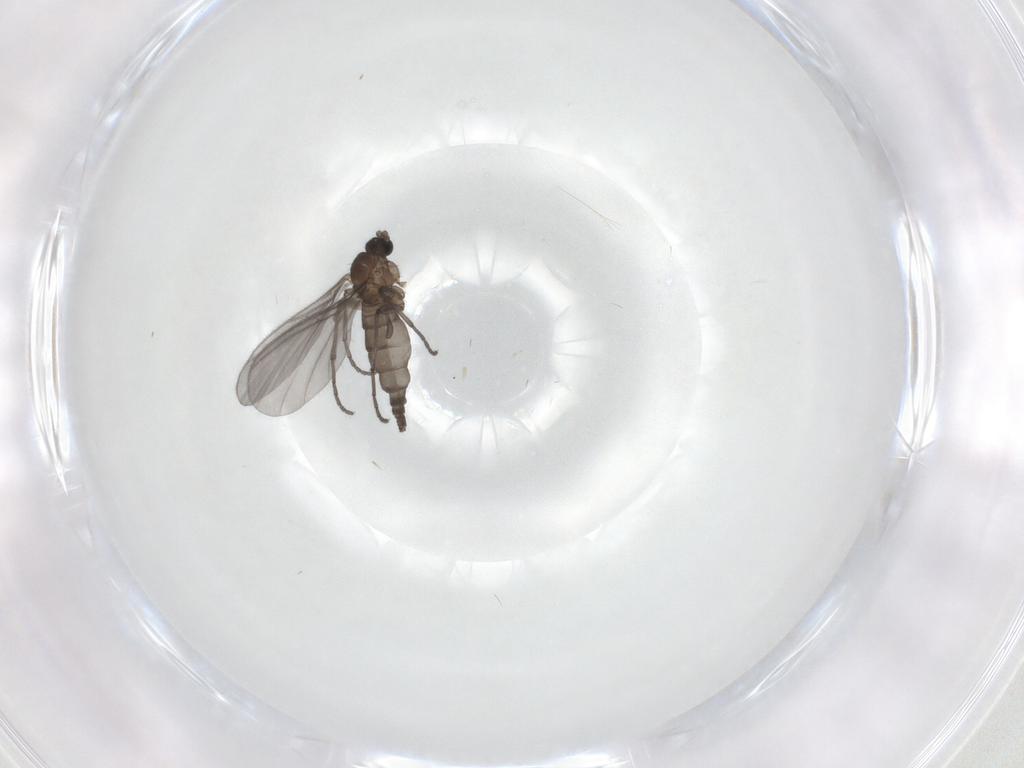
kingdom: Animalia
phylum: Arthropoda
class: Insecta
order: Diptera
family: Sciaridae
